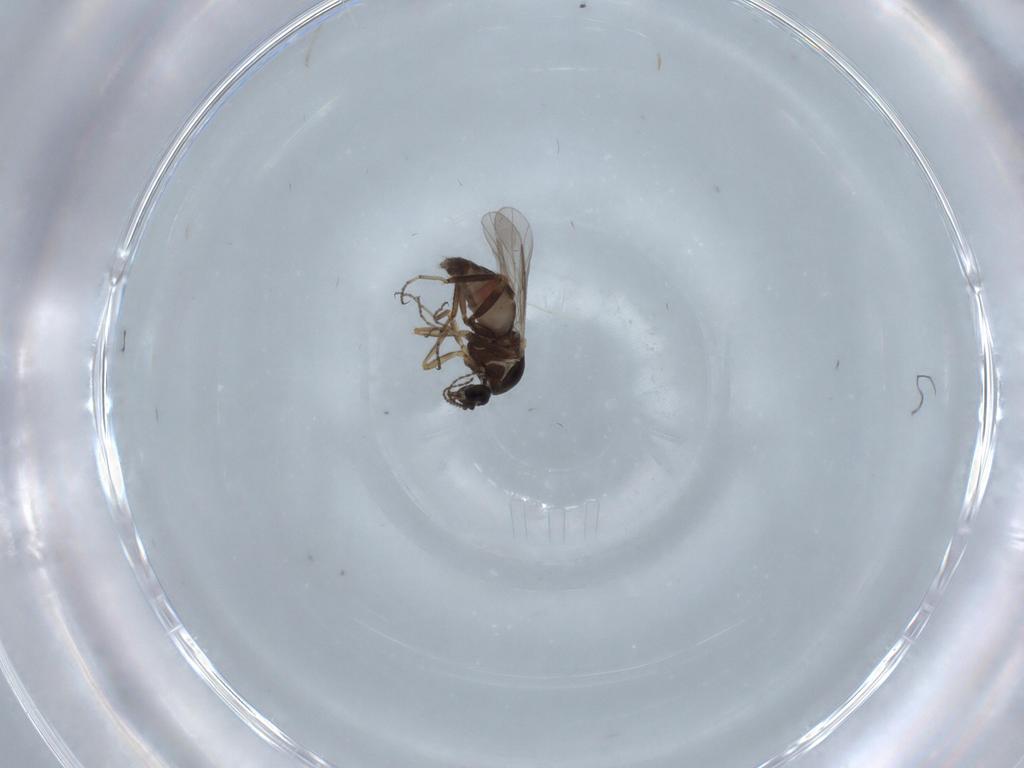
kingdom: Animalia
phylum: Arthropoda
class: Insecta
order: Diptera
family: Ceratopogonidae
